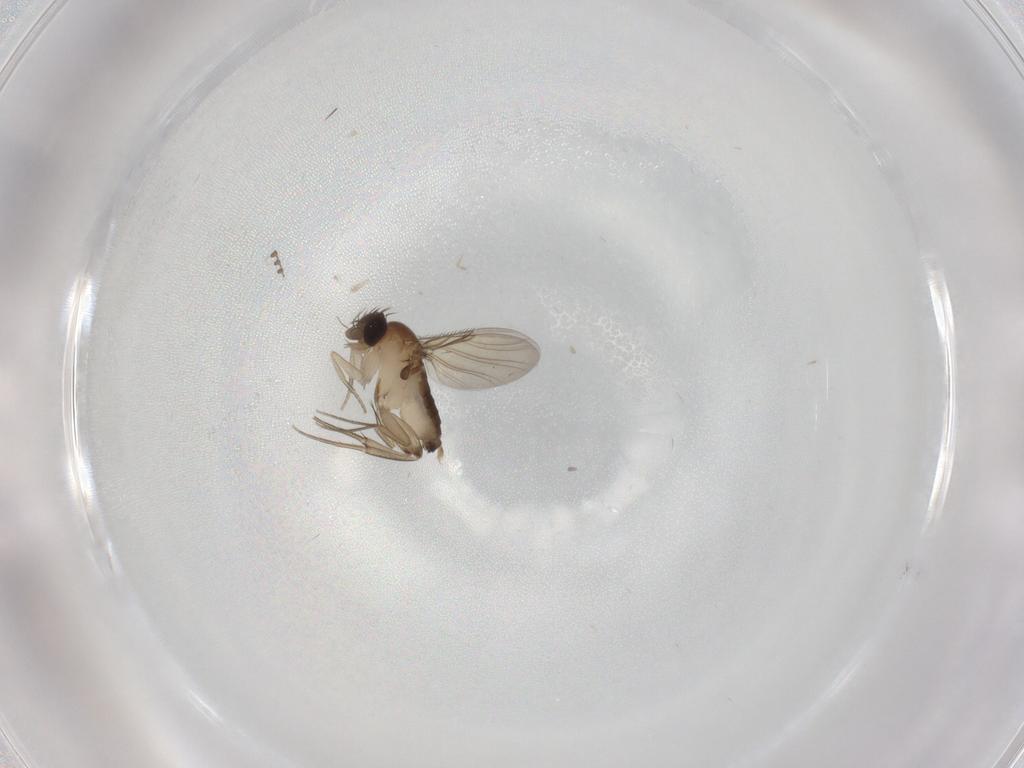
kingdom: Animalia
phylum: Arthropoda
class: Insecta
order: Diptera
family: Phoridae
